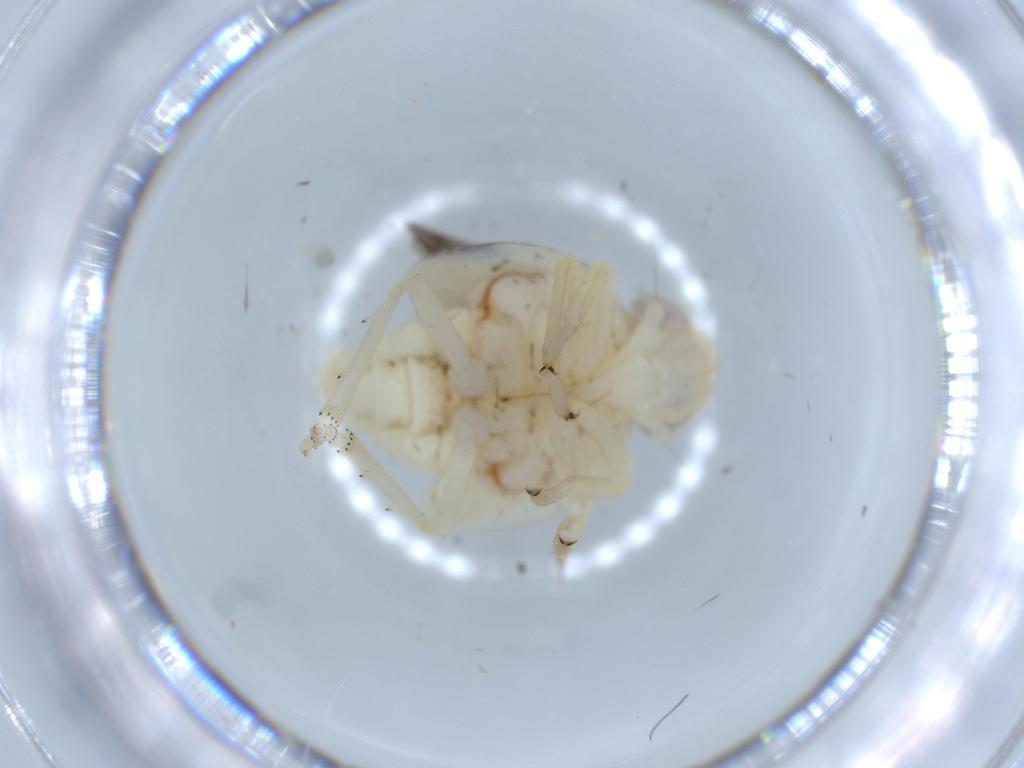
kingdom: Animalia
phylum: Arthropoda
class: Insecta
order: Hemiptera
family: Nogodinidae
